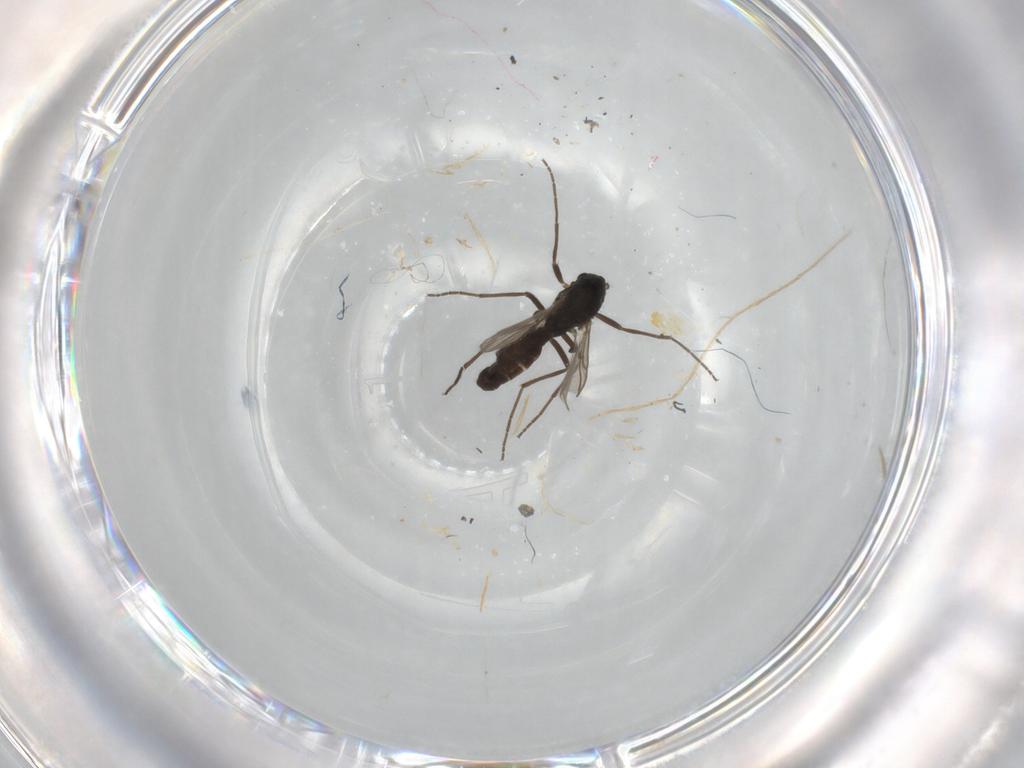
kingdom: Animalia
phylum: Arthropoda
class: Insecta
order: Diptera
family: Chironomidae
